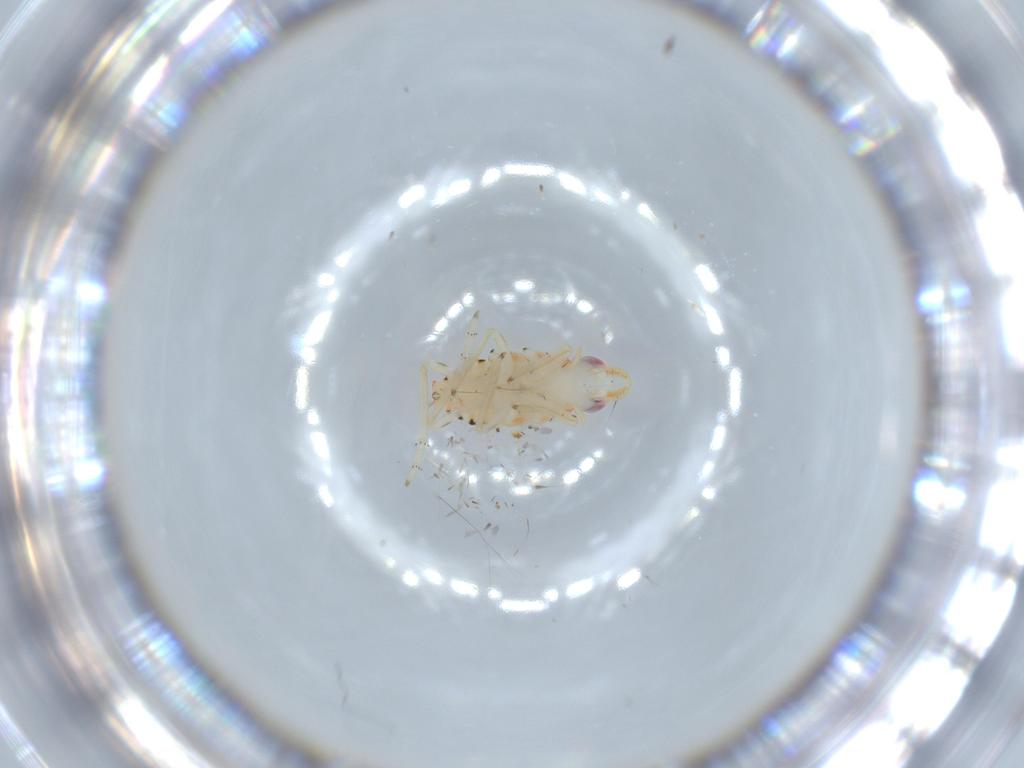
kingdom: Animalia
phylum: Arthropoda
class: Insecta
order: Hemiptera
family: Tropiduchidae
